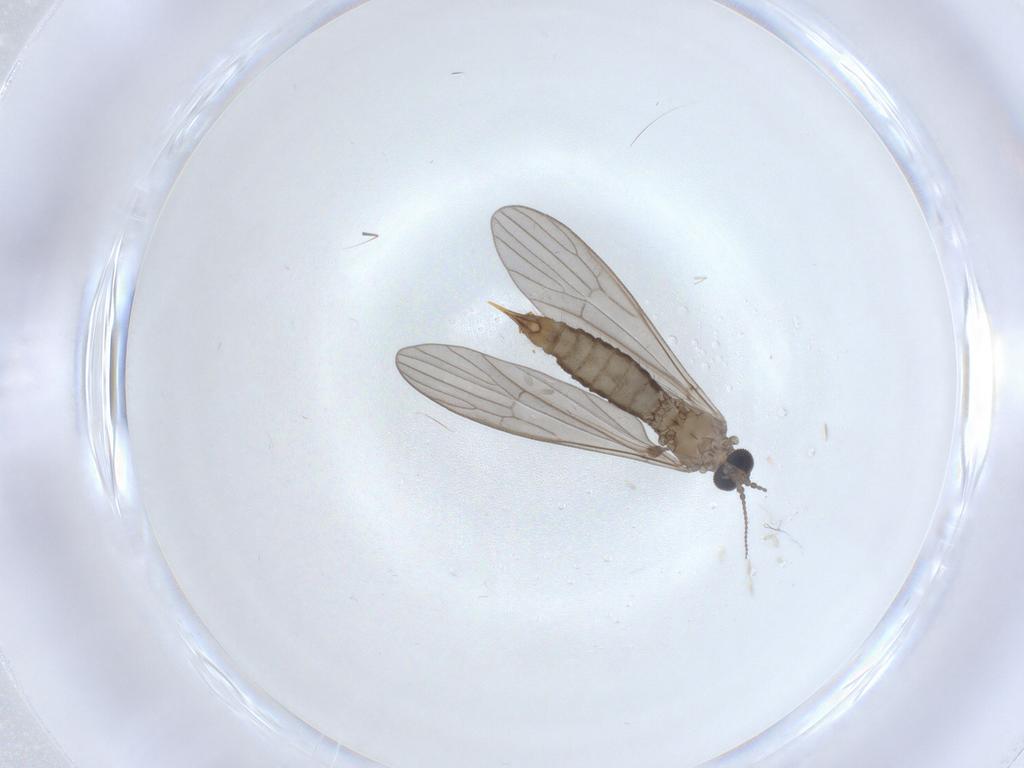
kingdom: Animalia
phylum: Arthropoda
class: Insecta
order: Diptera
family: Limoniidae
